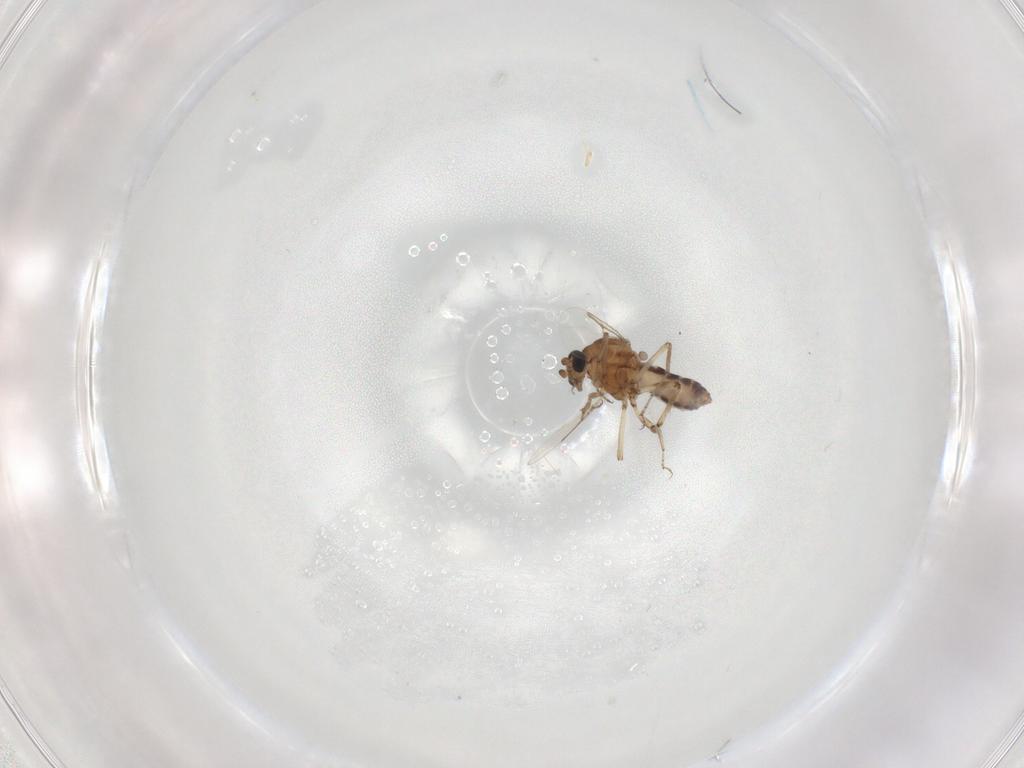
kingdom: Animalia
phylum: Arthropoda
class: Insecta
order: Diptera
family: Ceratopogonidae
